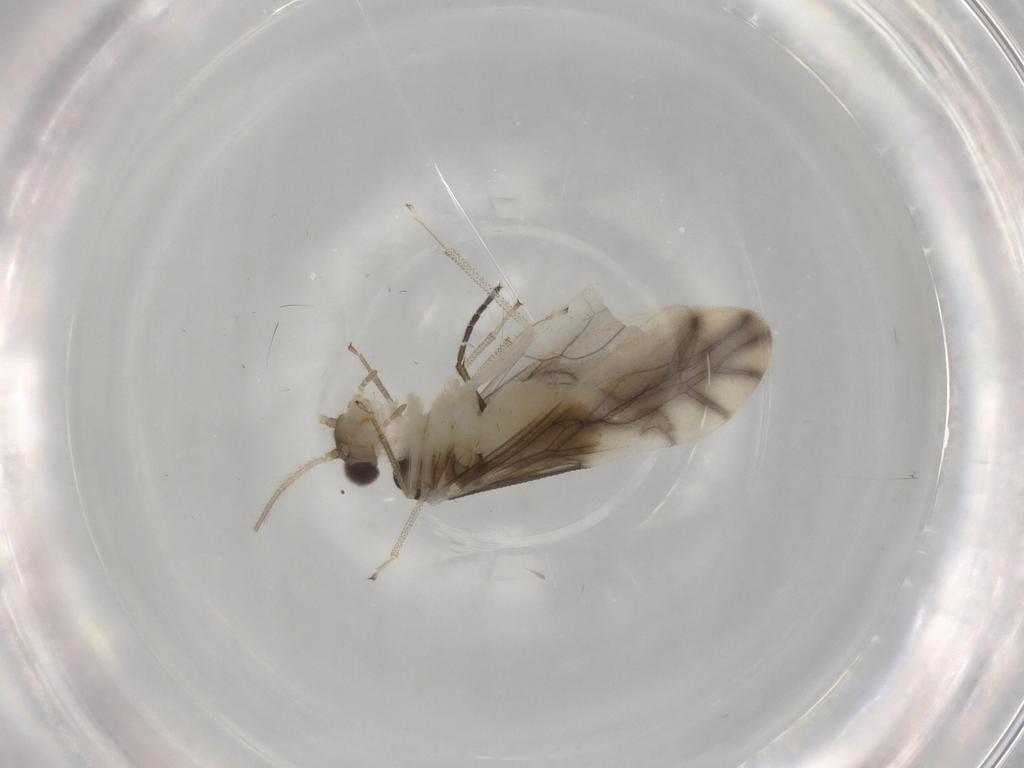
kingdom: Animalia
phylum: Arthropoda
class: Insecta
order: Psocodea
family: Caeciliusidae
